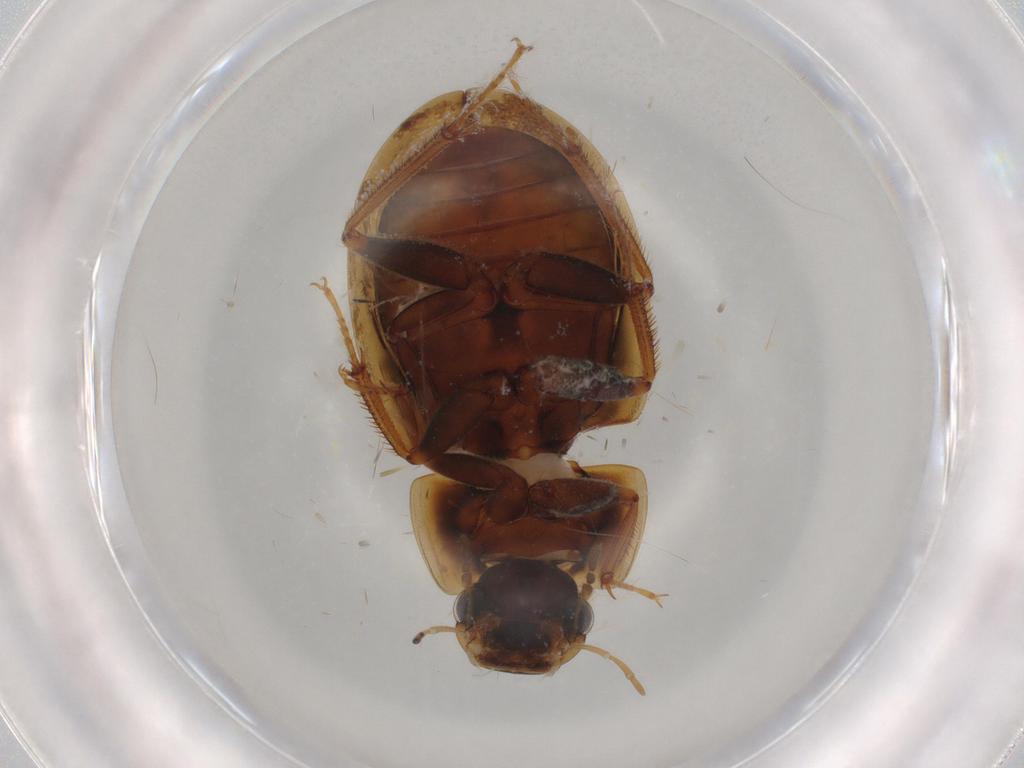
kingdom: Animalia
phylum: Arthropoda
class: Insecta
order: Coleoptera
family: Hydrophilidae
